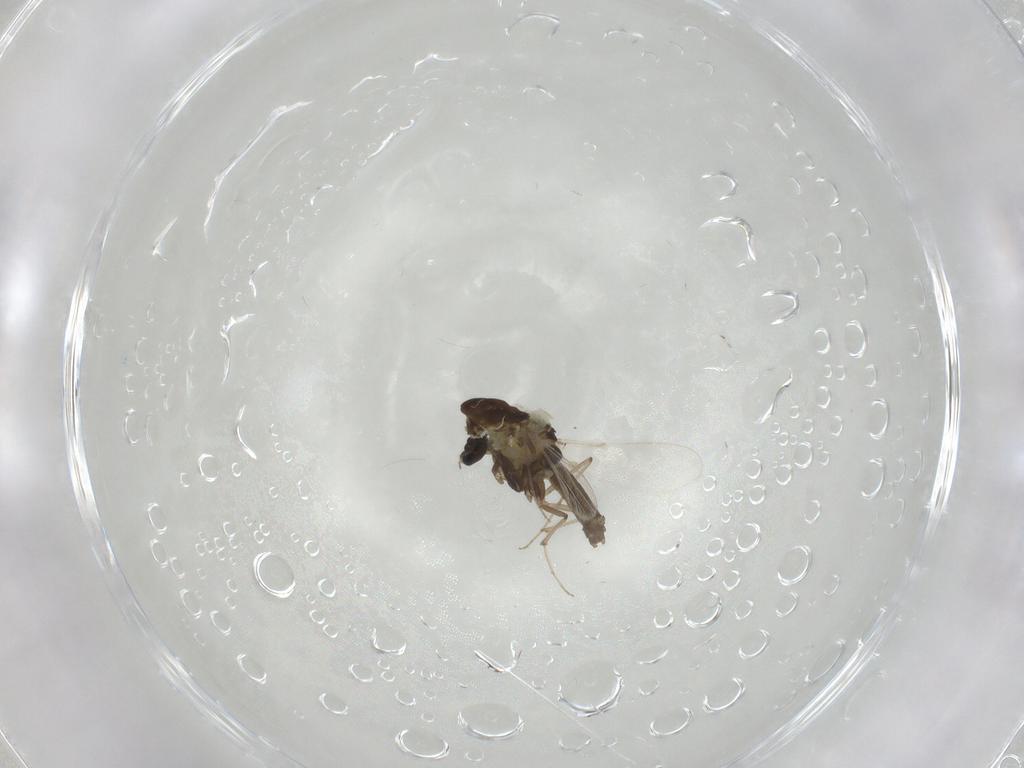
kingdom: Animalia
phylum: Arthropoda
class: Insecta
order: Diptera
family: Chironomidae
